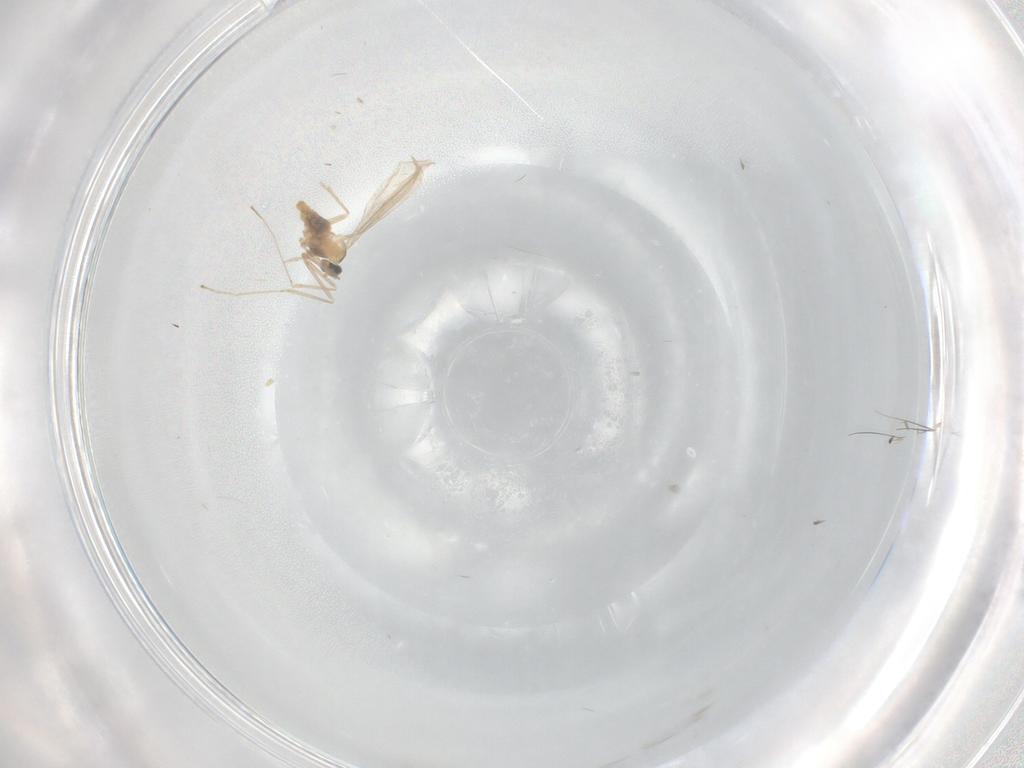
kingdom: Animalia
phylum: Arthropoda
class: Insecta
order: Diptera
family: Cecidomyiidae
